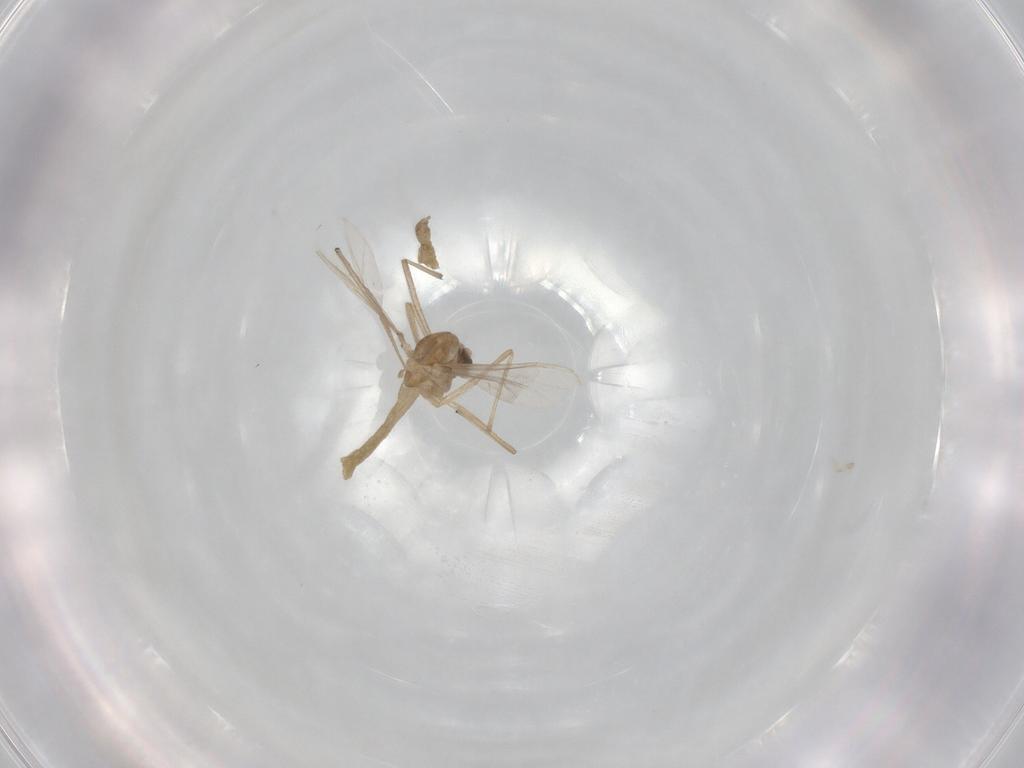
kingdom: Animalia
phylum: Arthropoda
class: Insecta
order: Diptera
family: Chironomidae
